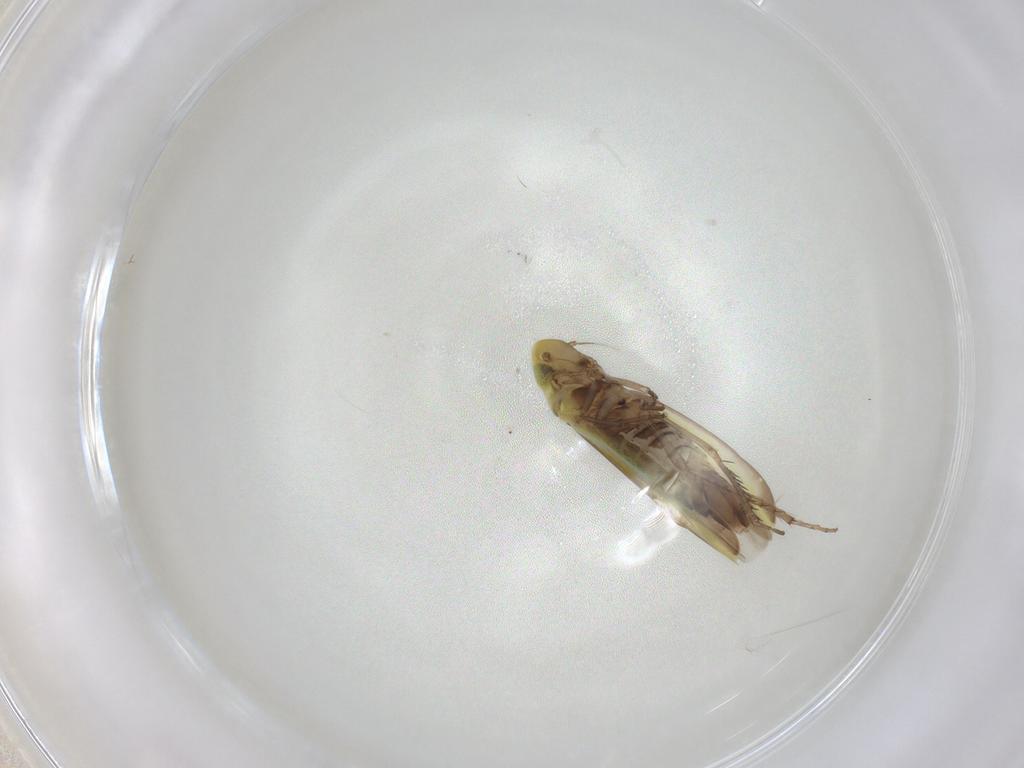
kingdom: Animalia
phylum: Arthropoda
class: Insecta
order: Hemiptera
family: Cicadellidae
